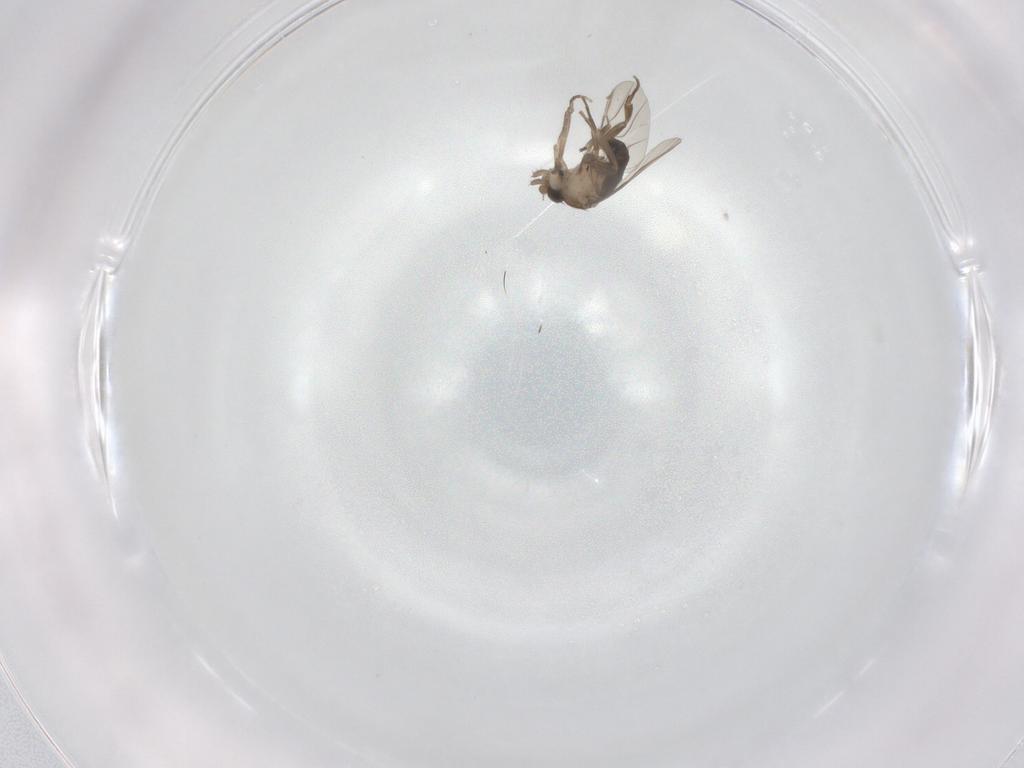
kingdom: Animalia
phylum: Arthropoda
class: Insecta
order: Diptera
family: Phoridae
